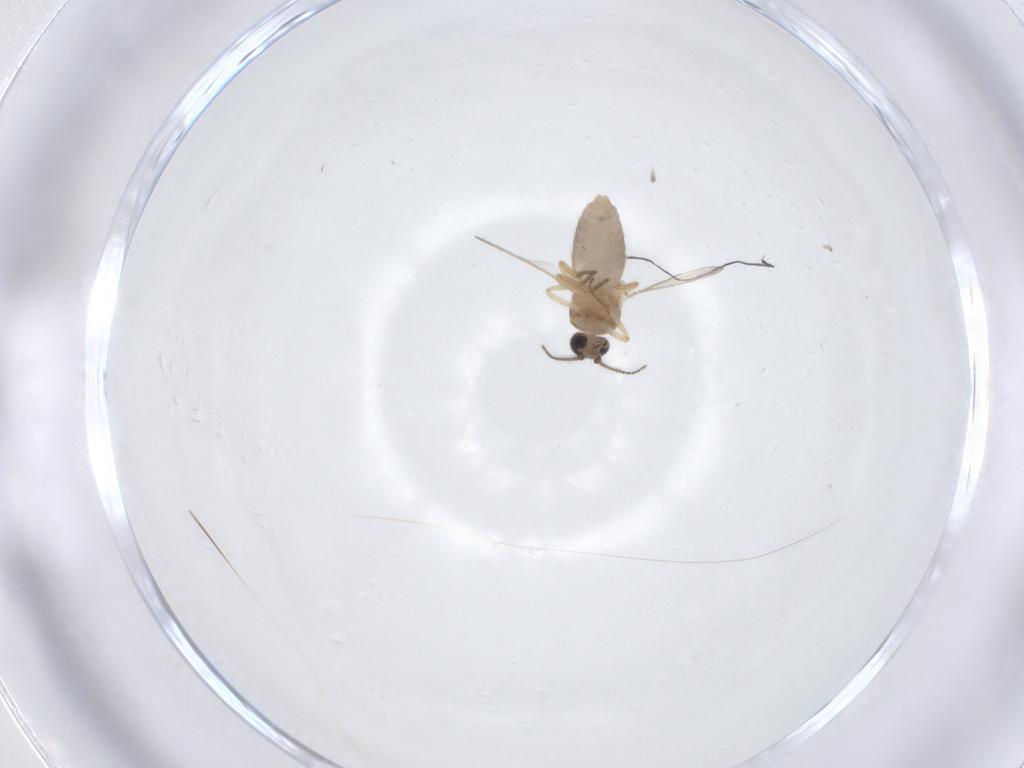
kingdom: Animalia
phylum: Arthropoda
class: Insecta
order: Diptera
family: Ceratopogonidae
